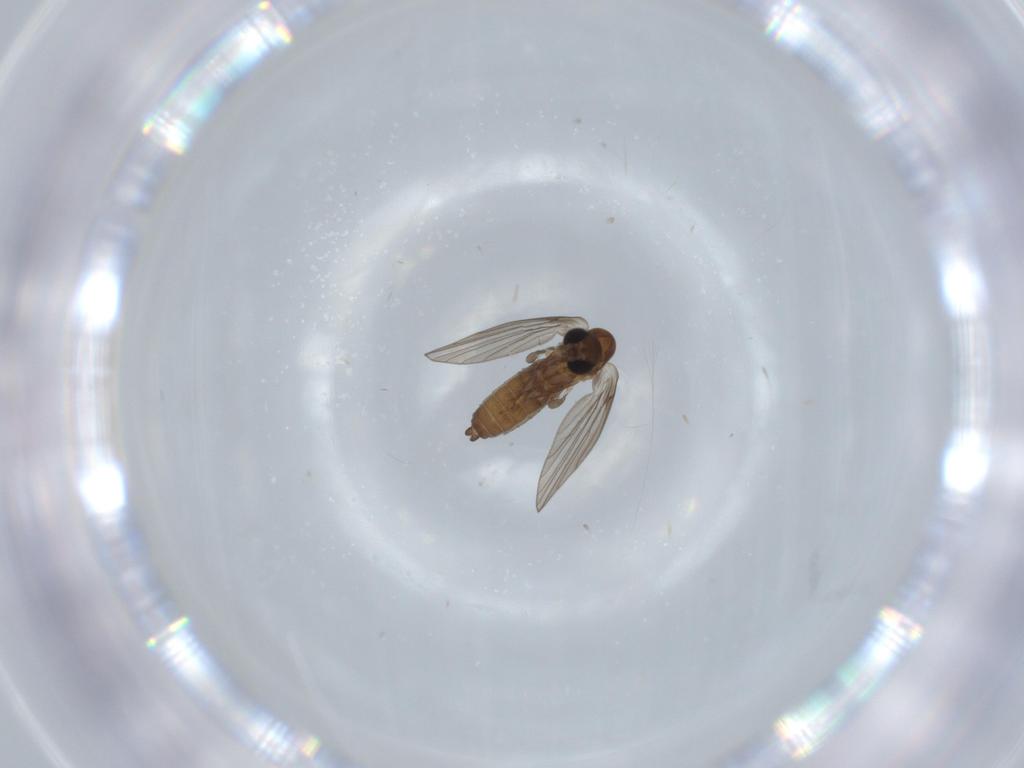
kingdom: Animalia
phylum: Arthropoda
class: Insecta
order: Diptera
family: Psychodidae
